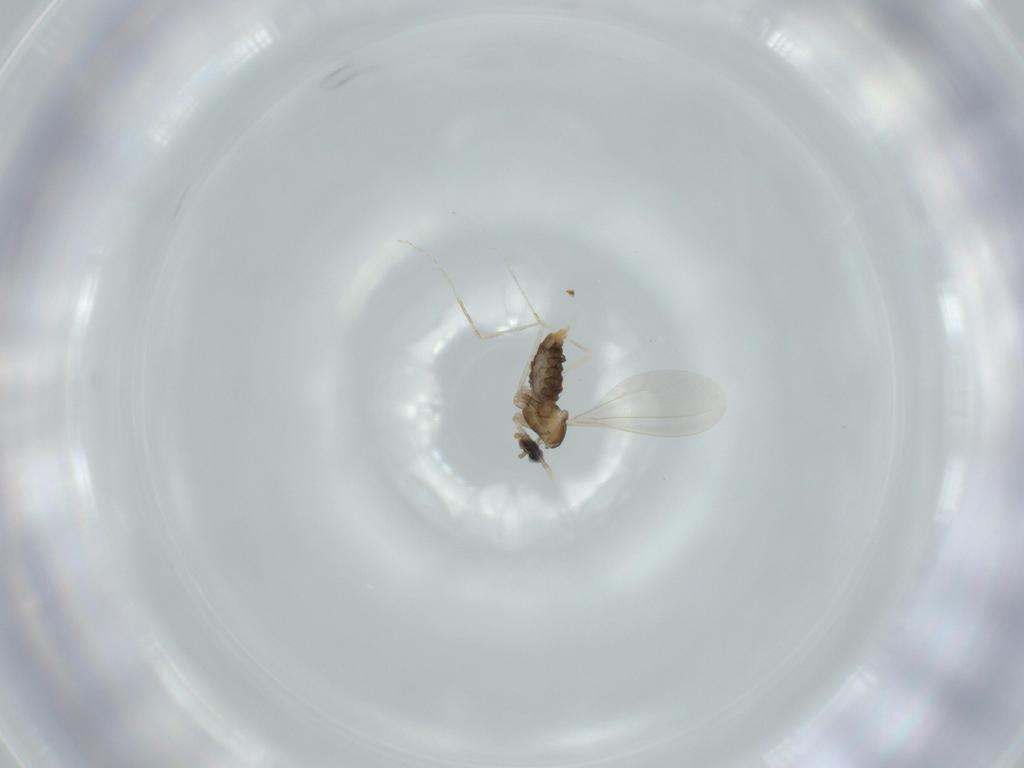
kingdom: Animalia
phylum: Arthropoda
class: Insecta
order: Diptera
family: Cecidomyiidae
